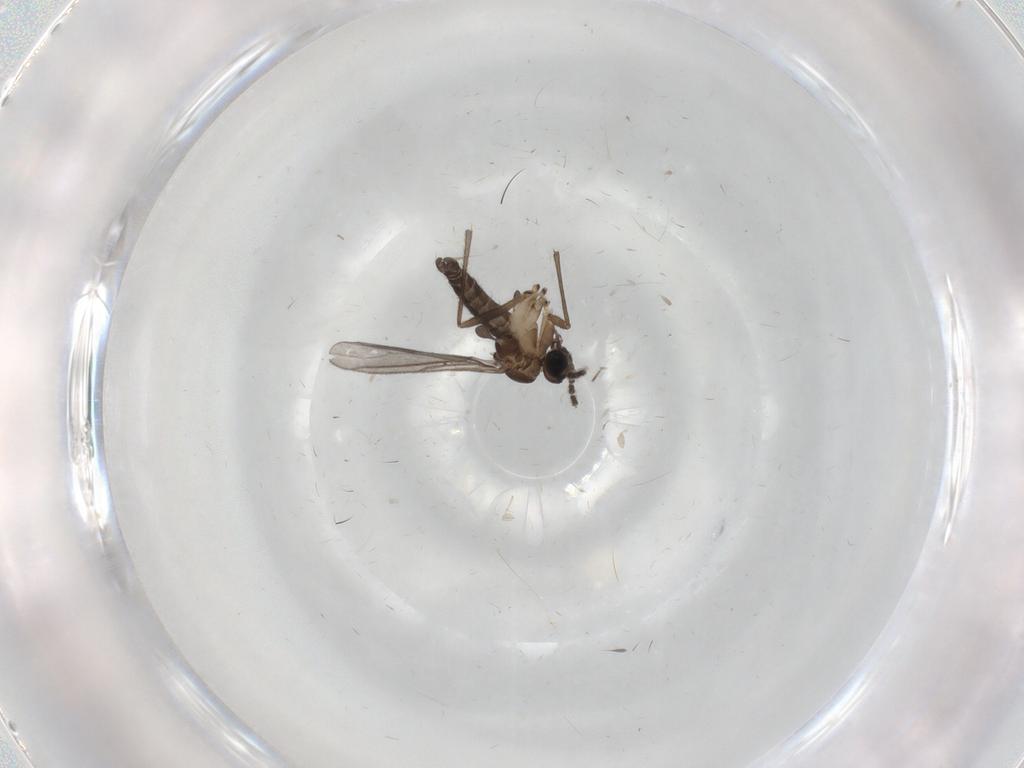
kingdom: Animalia
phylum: Arthropoda
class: Insecta
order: Diptera
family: Sciaridae
